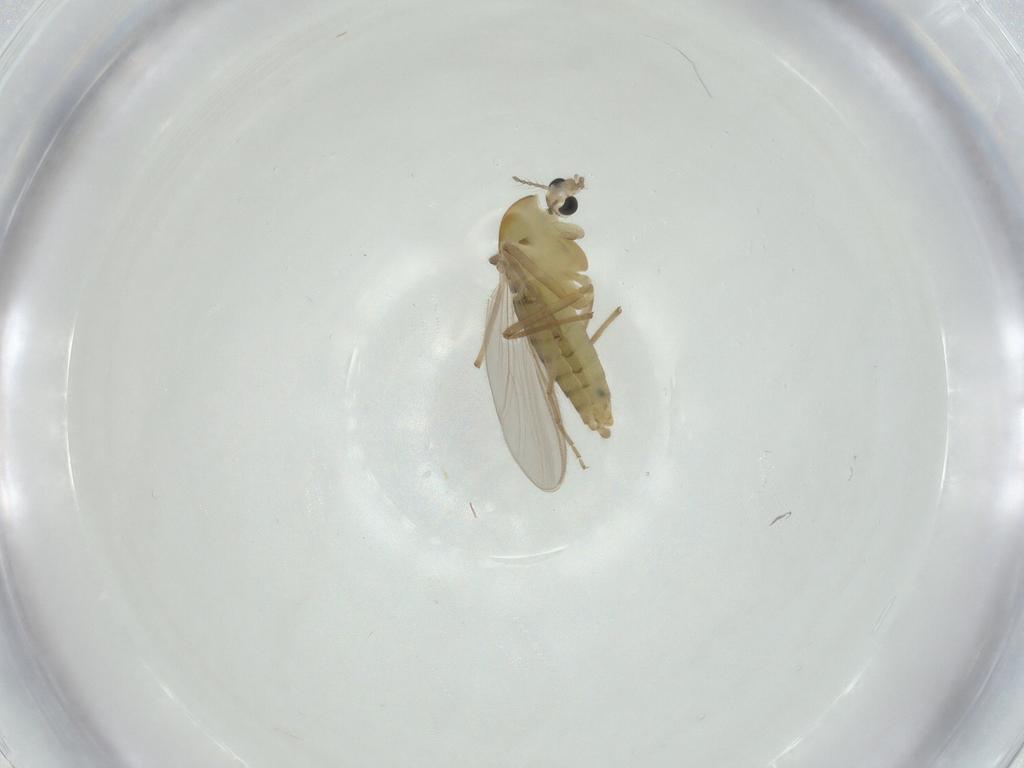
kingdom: Animalia
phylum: Arthropoda
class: Insecta
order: Diptera
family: Chironomidae
